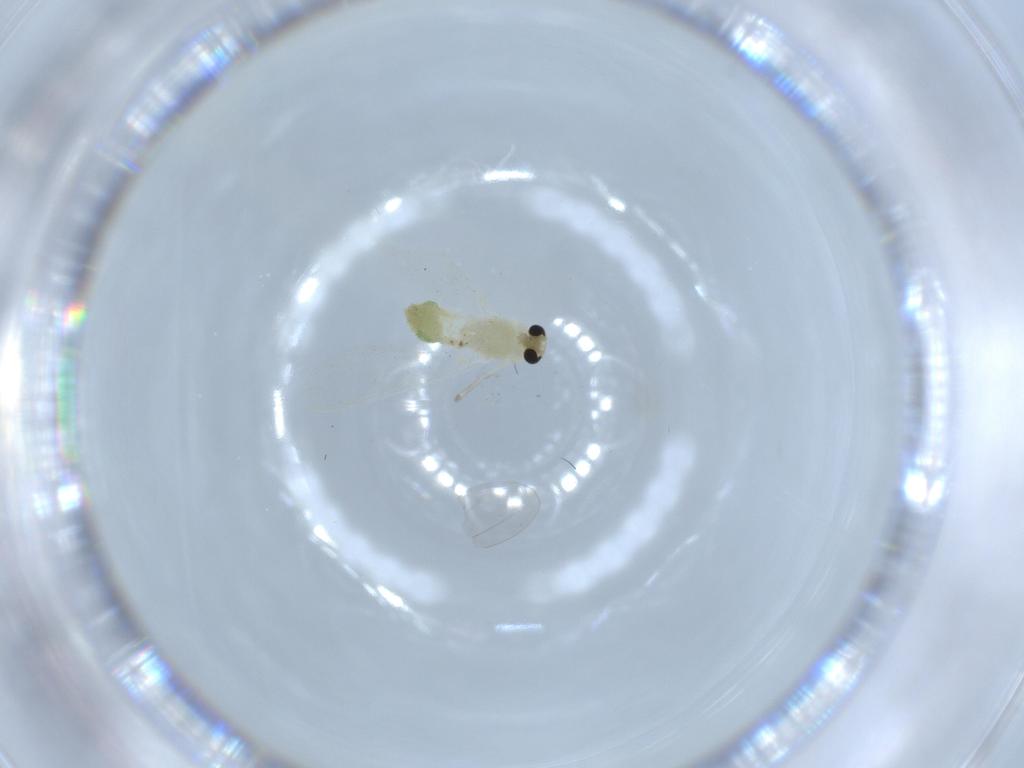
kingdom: Animalia
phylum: Arthropoda
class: Insecta
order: Diptera
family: Chironomidae
